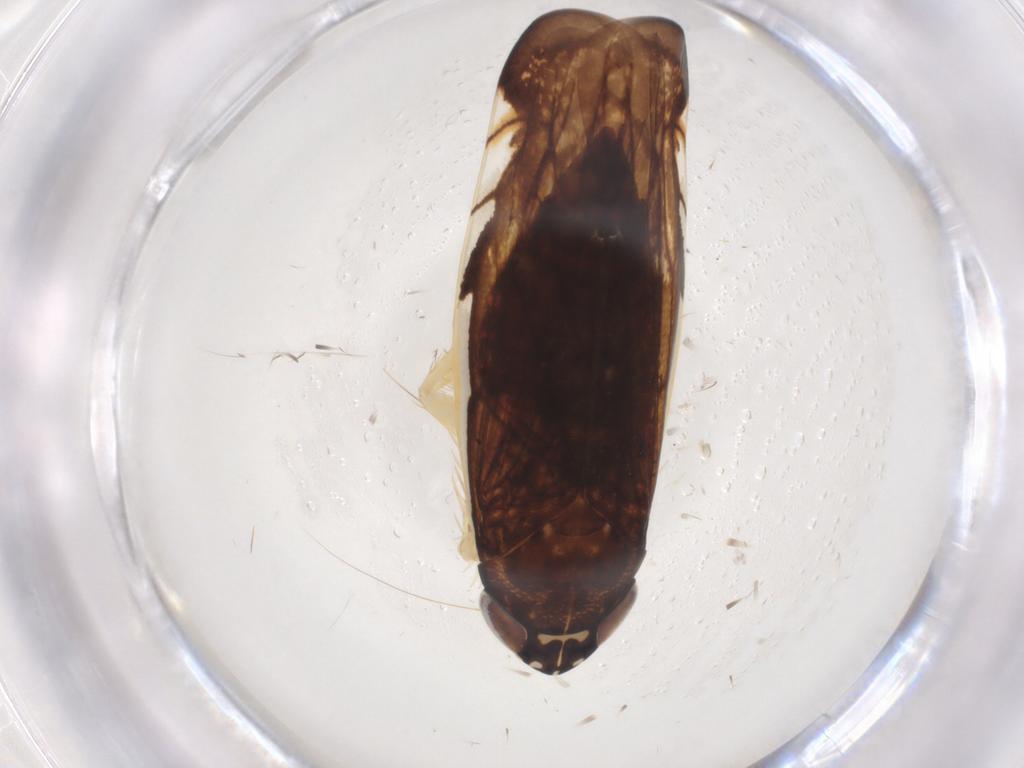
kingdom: Animalia
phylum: Arthropoda
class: Insecta
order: Hemiptera
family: Cicadellidae
